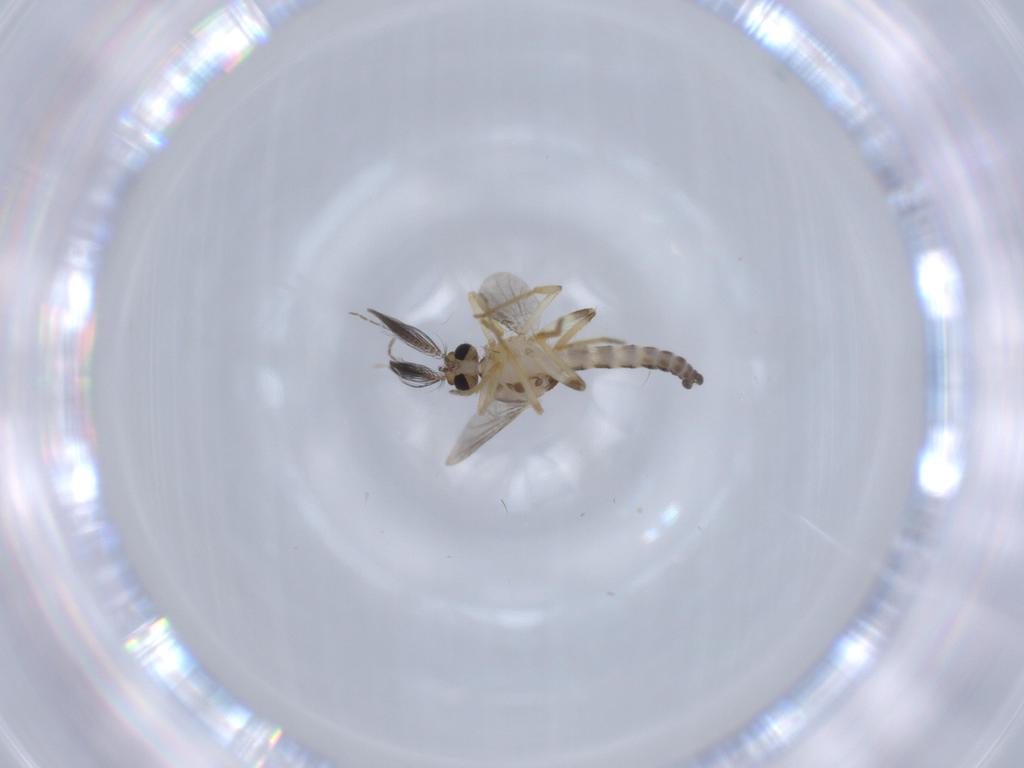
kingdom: Animalia
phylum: Arthropoda
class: Insecta
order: Diptera
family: Ceratopogonidae
